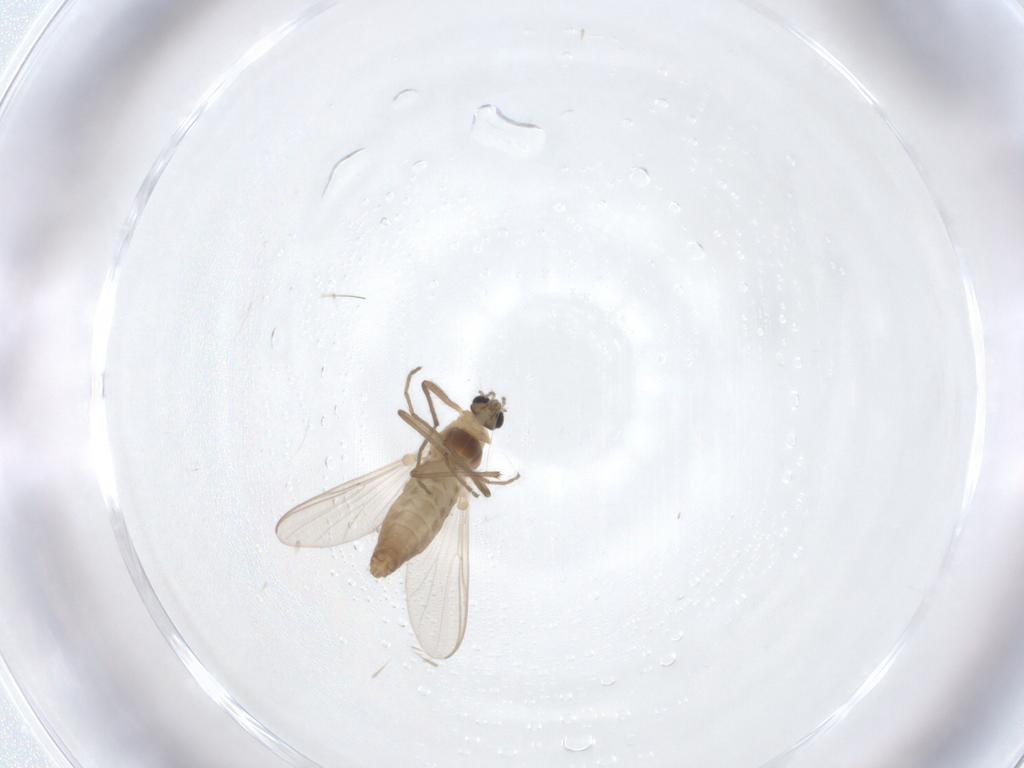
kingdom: Animalia
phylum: Arthropoda
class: Insecta
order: Diptera
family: Chironomidae
